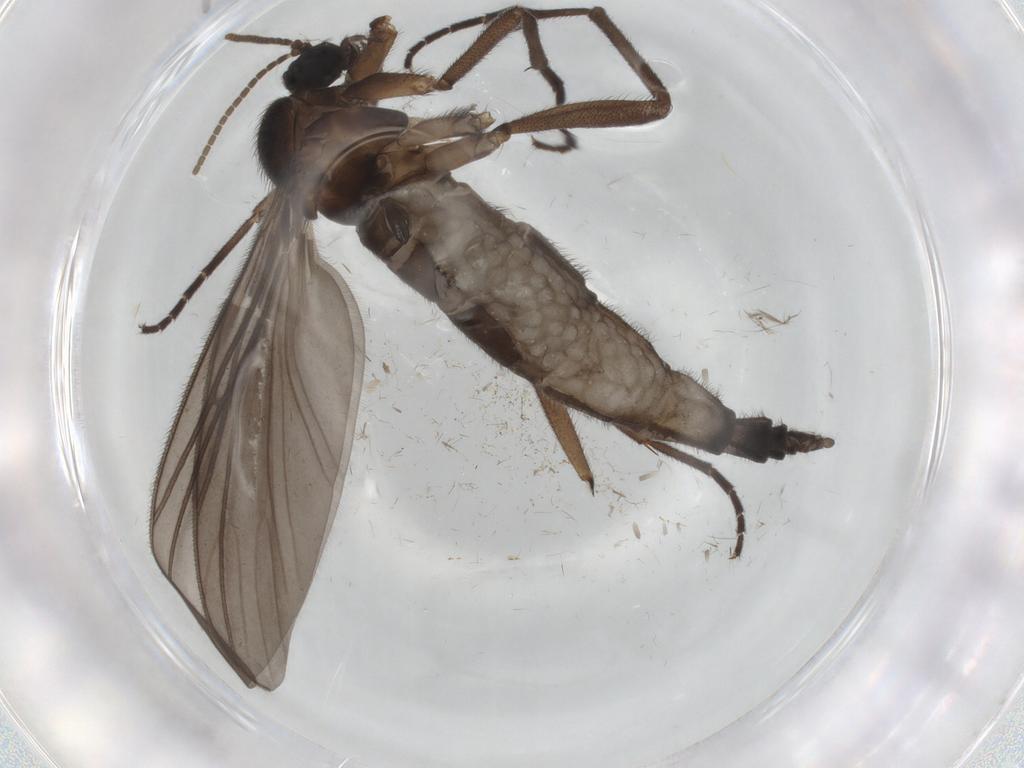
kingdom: Animalia
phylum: Arthropoda
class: Insecta
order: Diptera
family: Sciaridae
